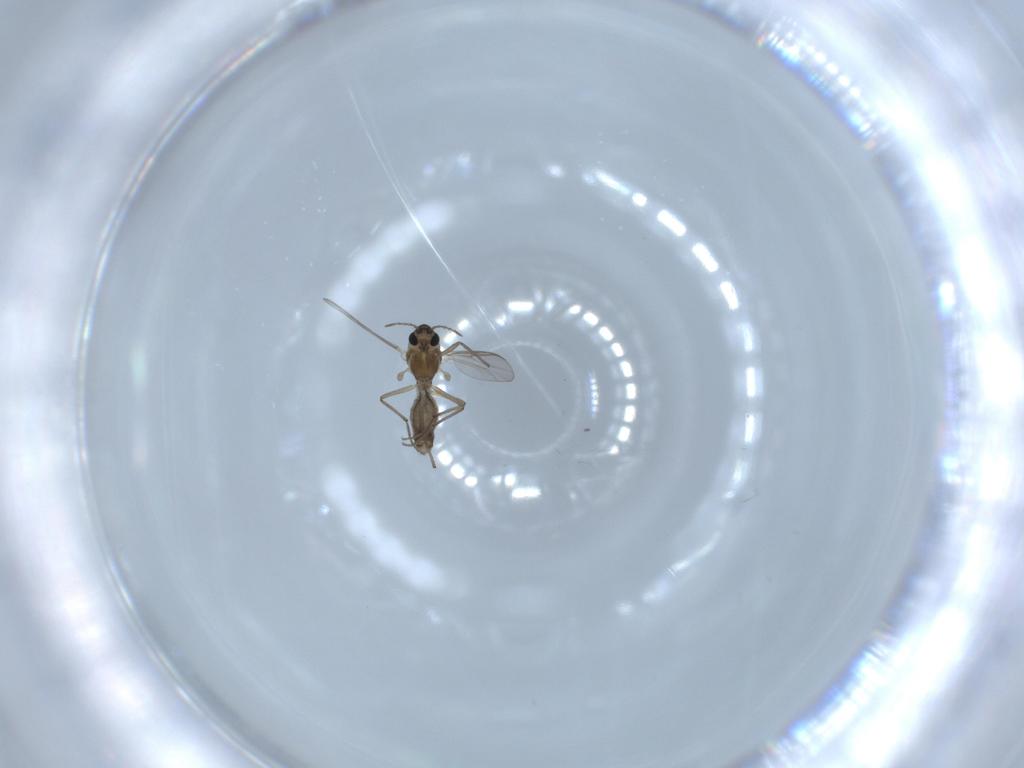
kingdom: Animalia
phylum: Arthropoda
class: Insecta
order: Diptera
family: Chironomidae
